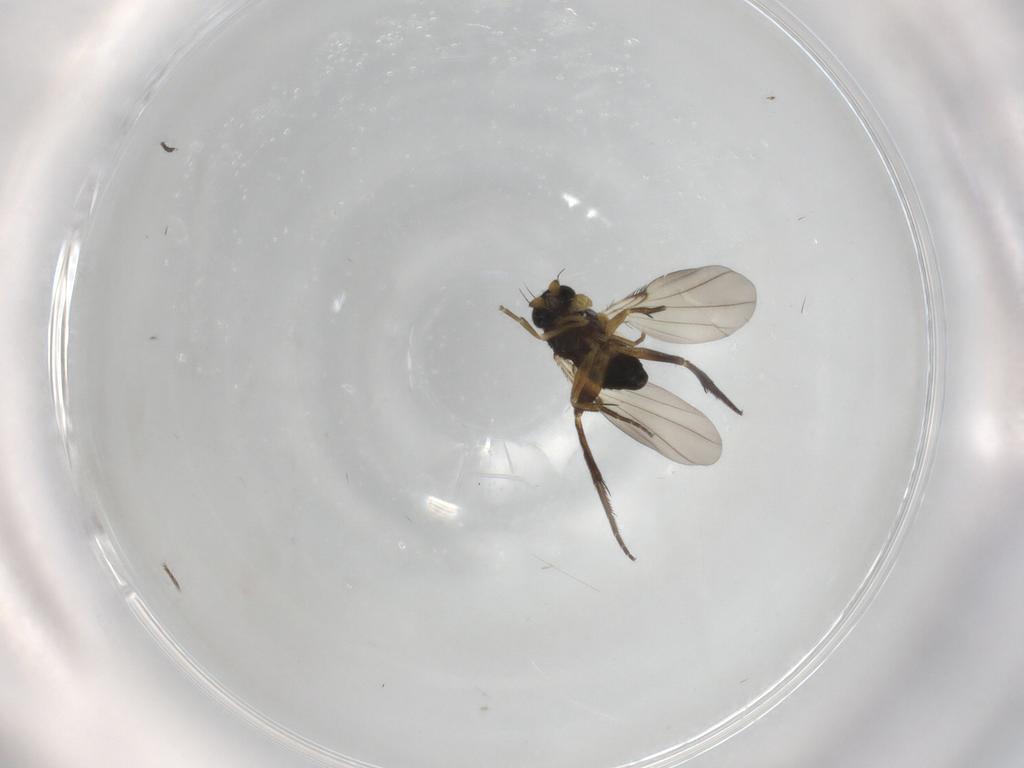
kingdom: Animalia
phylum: Arthropoda
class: Insecta
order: Diptera
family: Phoridae
